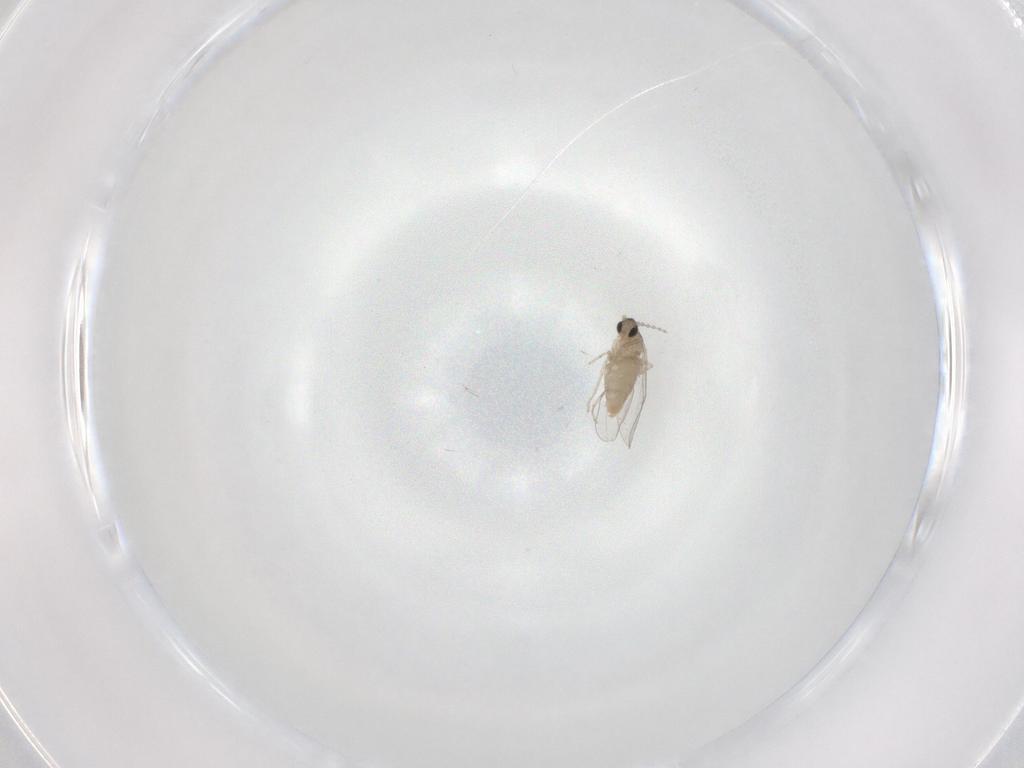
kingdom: Animalia
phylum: Arthropoda
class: Insecta
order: Diptera
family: Cecidomyiidae
